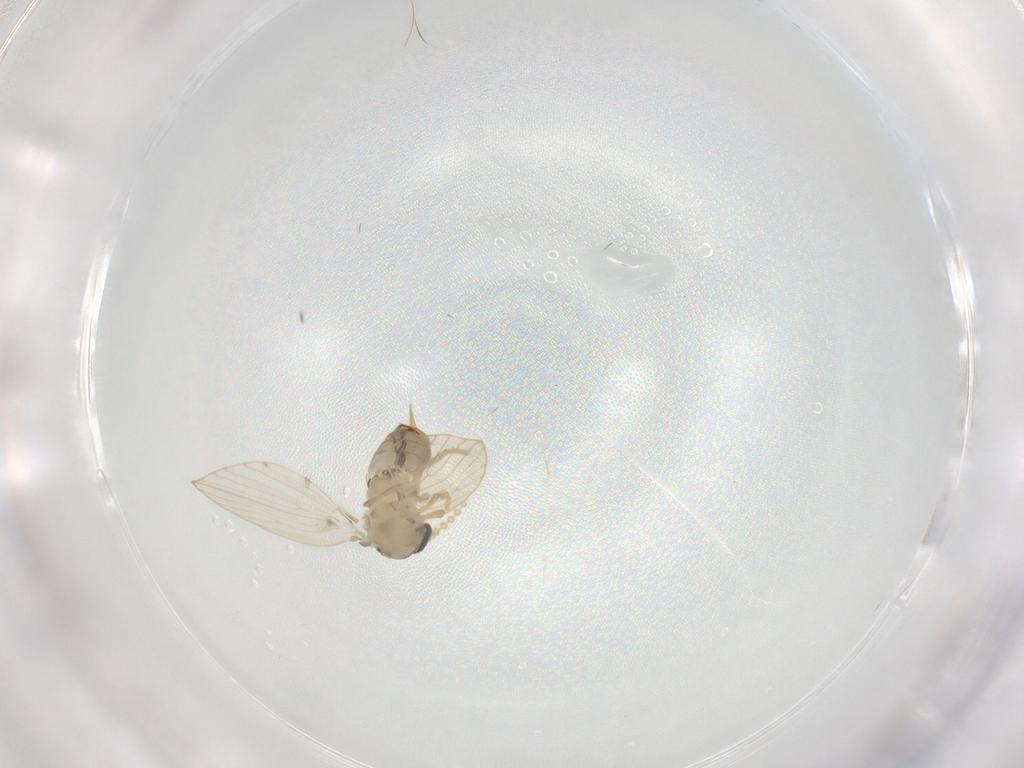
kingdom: Animalia
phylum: Arthropoda
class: Insecta
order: Diptera
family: Psychodidae
